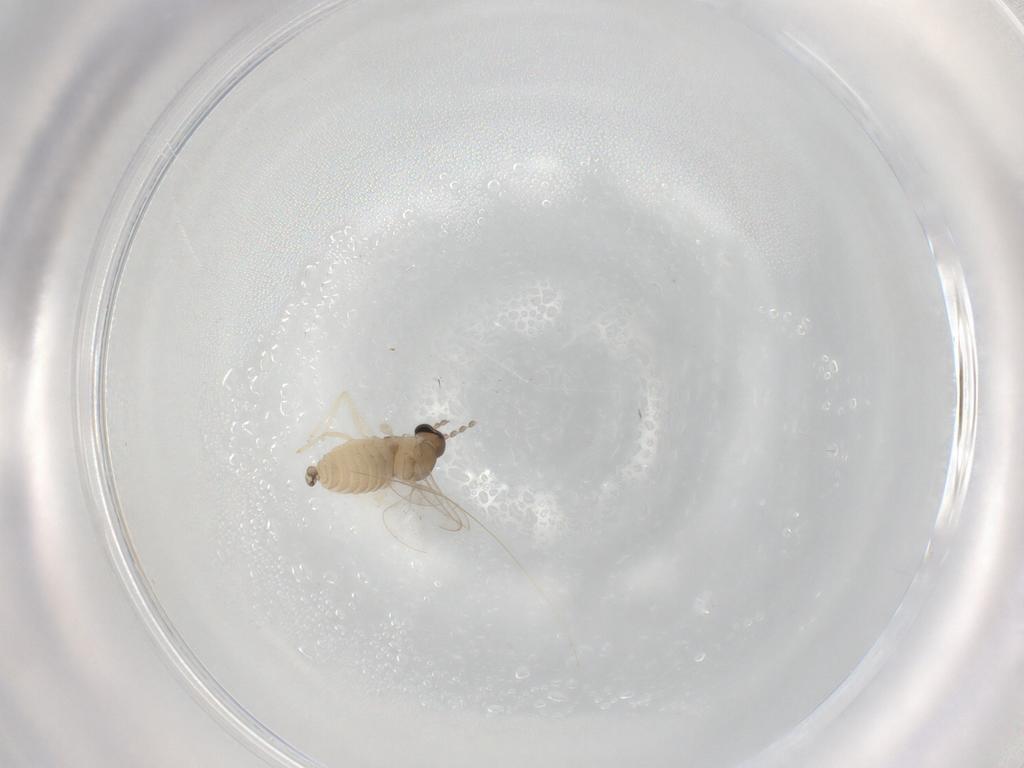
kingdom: Animalia
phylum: Arthropoda
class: Insecta
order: Diptera
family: Cecidomyiidae
